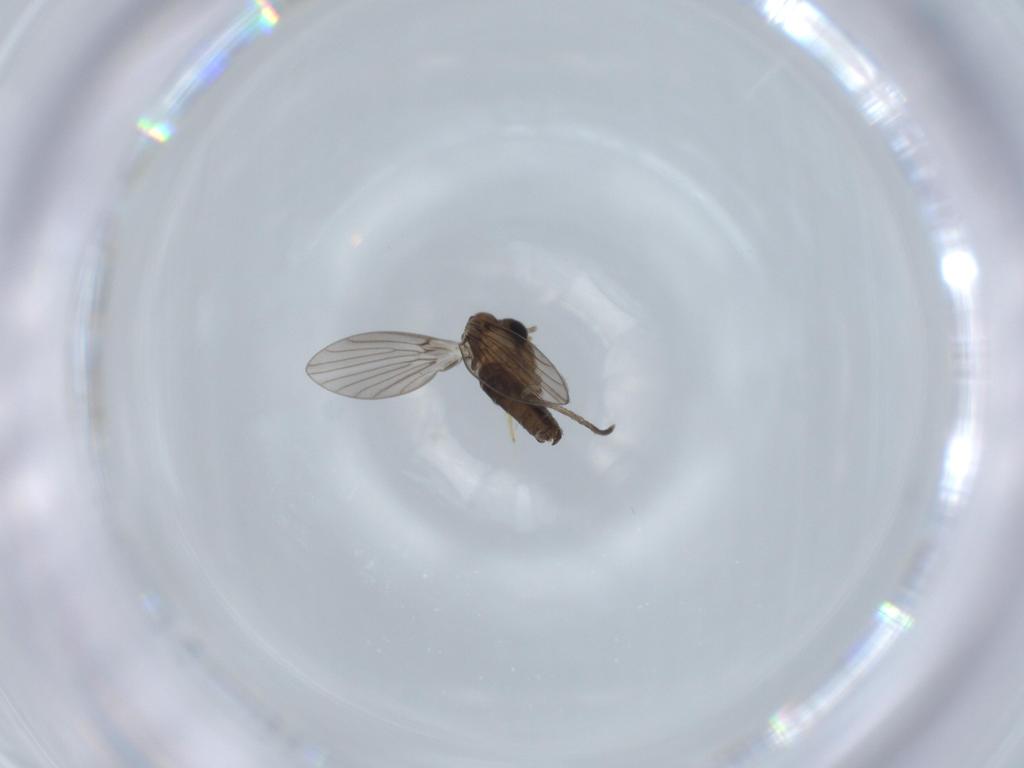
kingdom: Animalia
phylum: Arthropoda
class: Insecta
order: Diptera
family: Psychodidae
